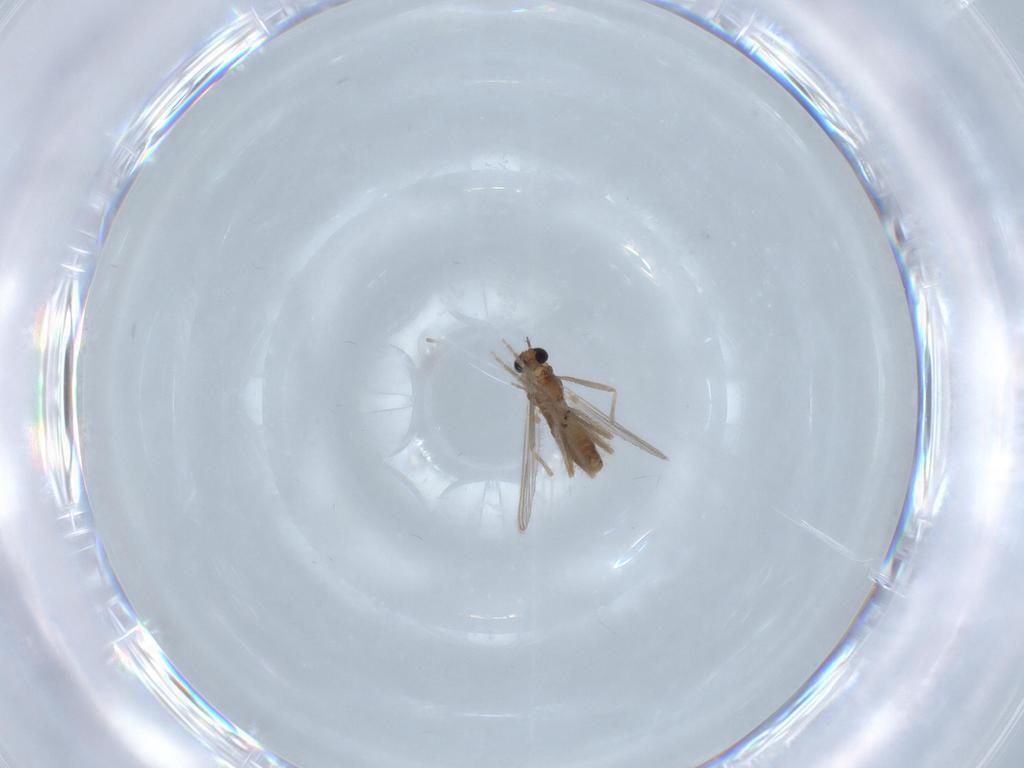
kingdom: Animalia
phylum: Arthropoda
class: Insecta
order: Diptera
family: Chironomidae
